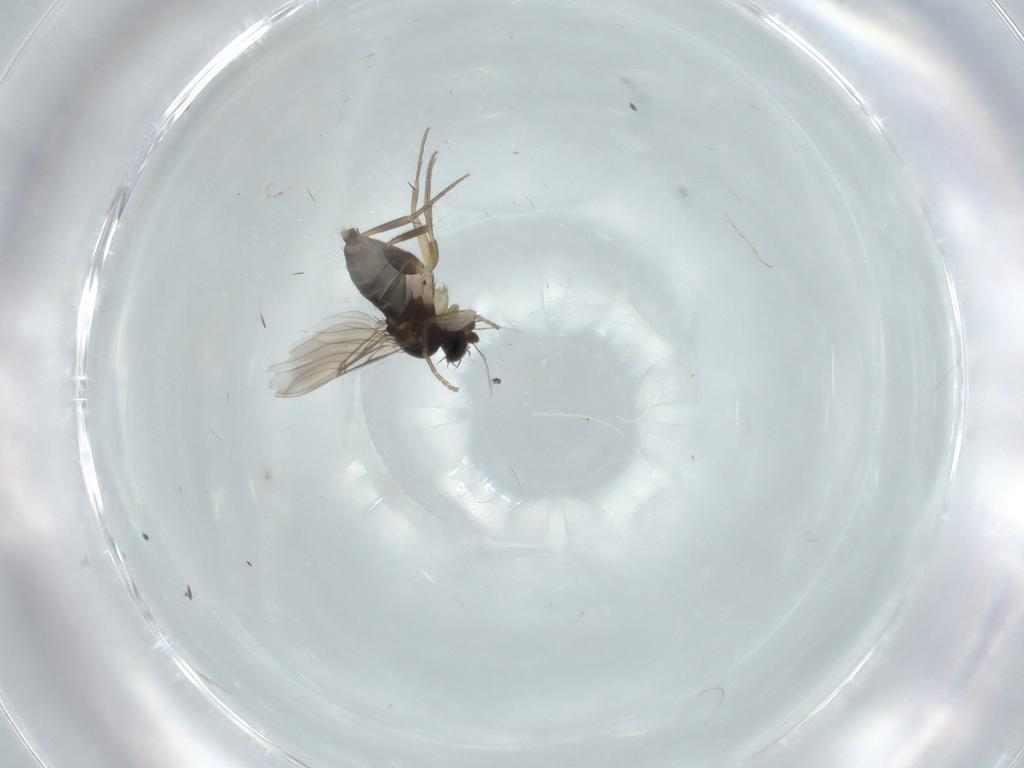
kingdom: Animalia
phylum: Arthropoda
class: Insecta
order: Diptera
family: Phoridae
